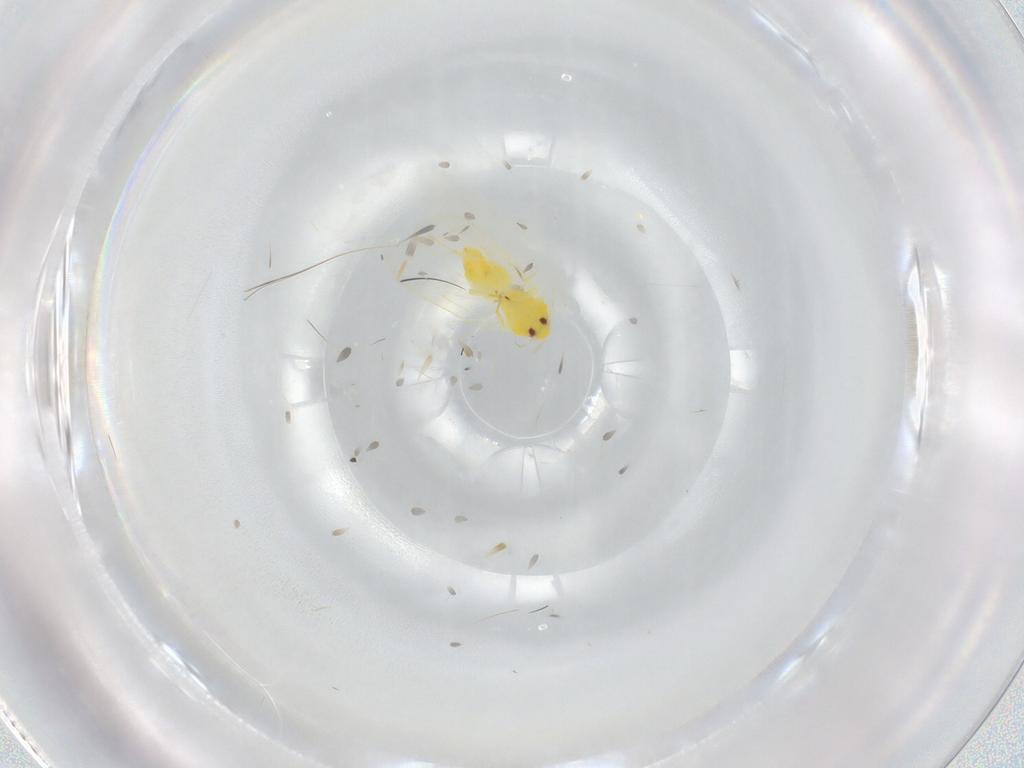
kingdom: Animalia
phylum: Arthropoda
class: Insecta
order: Hemiptera
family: Aleyrodidae
